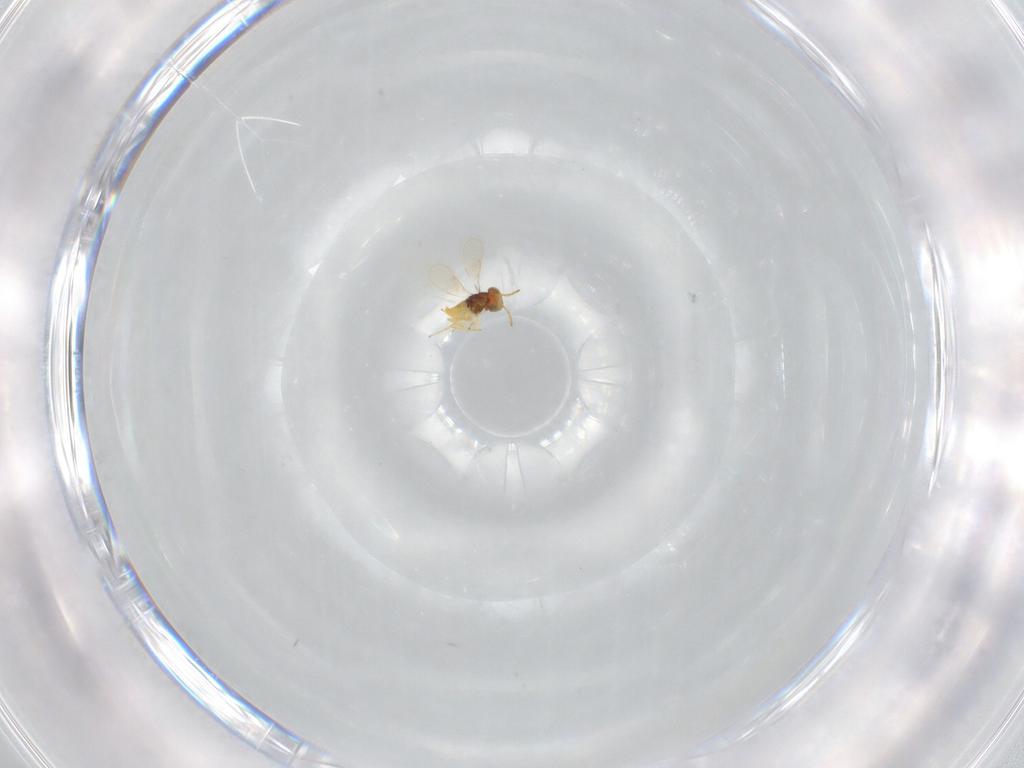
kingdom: Animalia
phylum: Arthropoda
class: Insecta
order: Hymenoptera
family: Aphelinidae
